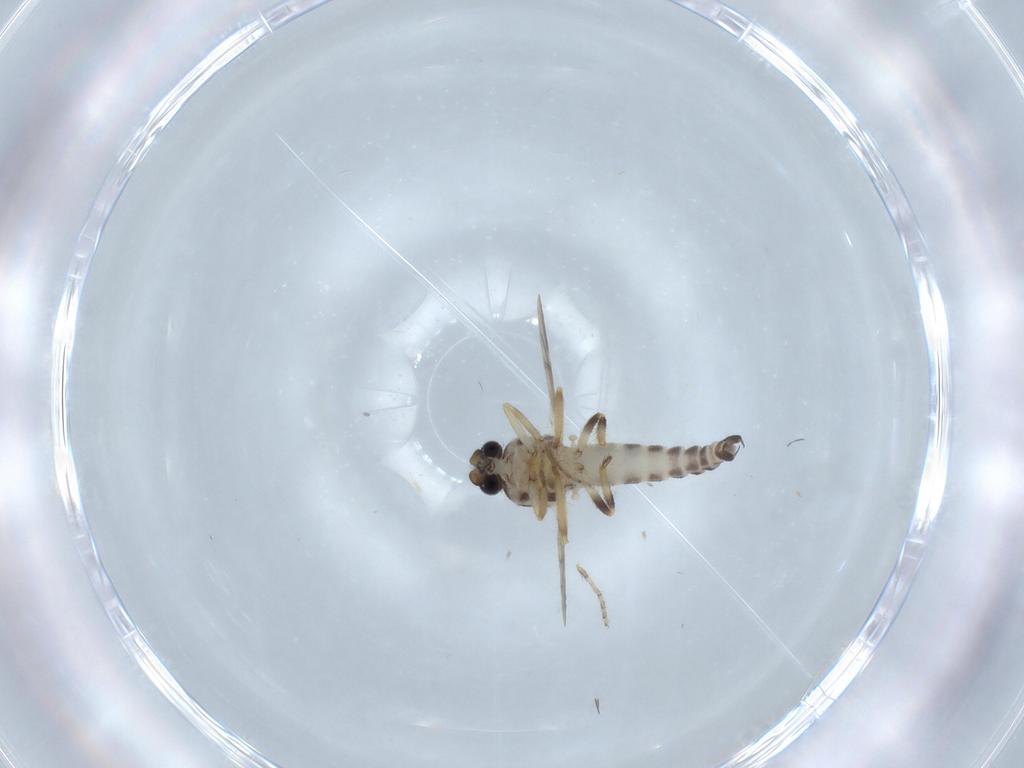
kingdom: Animalia
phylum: Arthropoda
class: Insecta
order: Diptera
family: Ceratopogonidae
